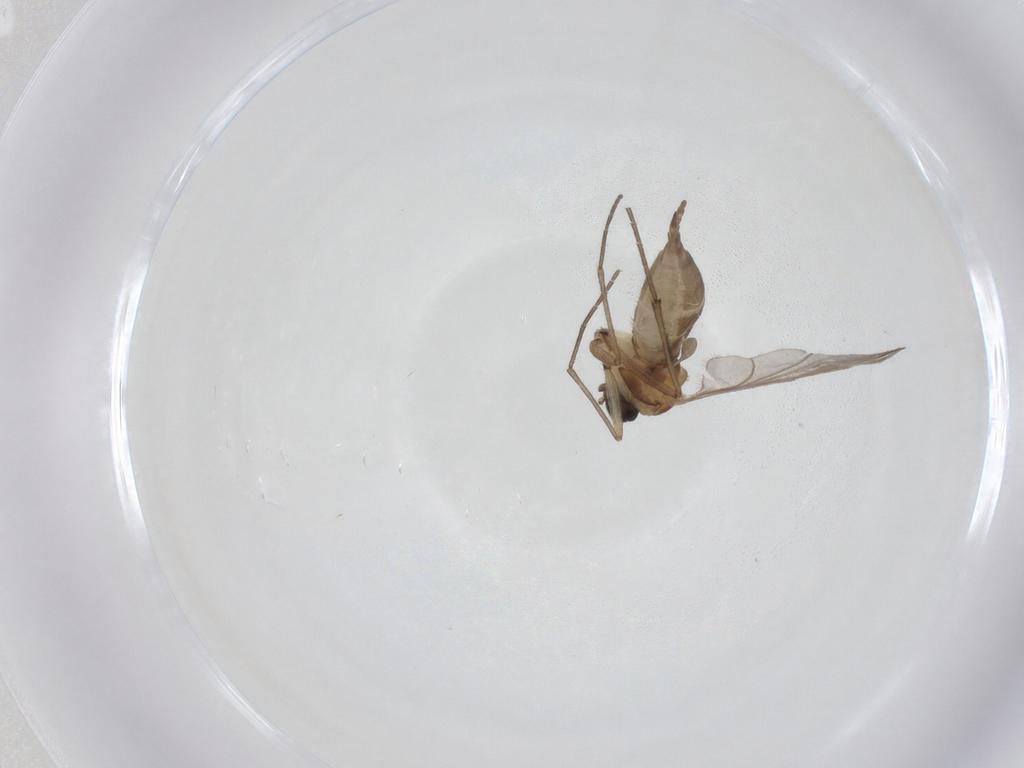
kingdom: Animalia
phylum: Arthropoda
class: Insecta
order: Diptera
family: Sciaridae
